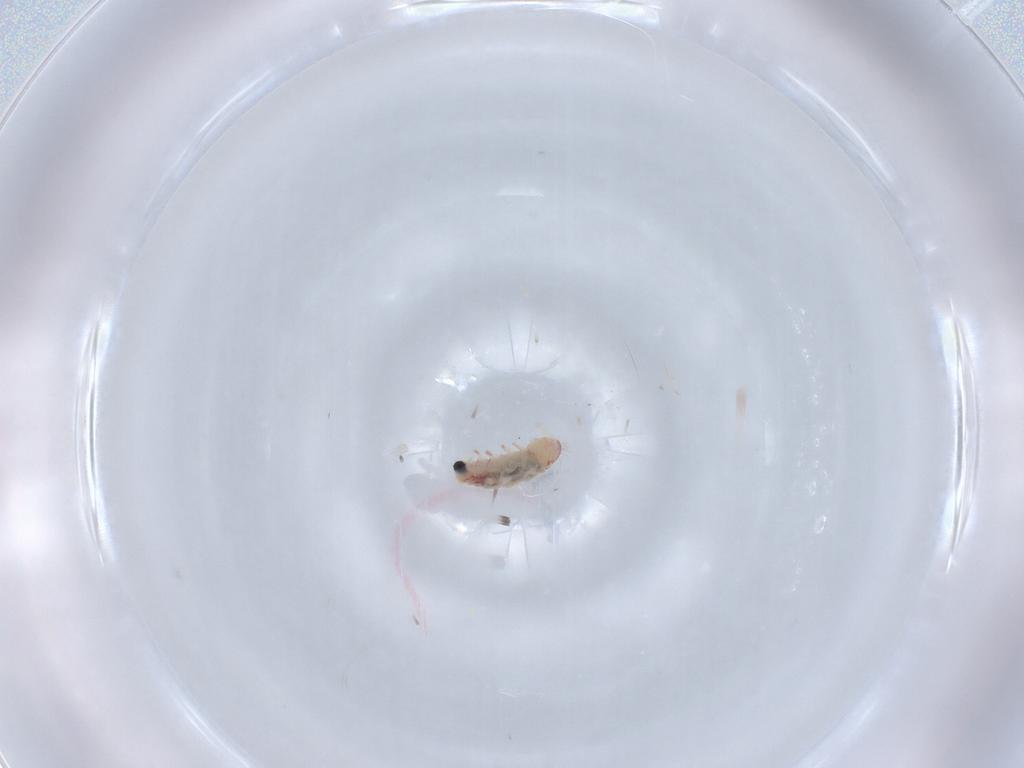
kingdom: Animalia
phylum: Arthropoda
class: Diplopoda
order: Polyxenida
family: Polyxenidae
